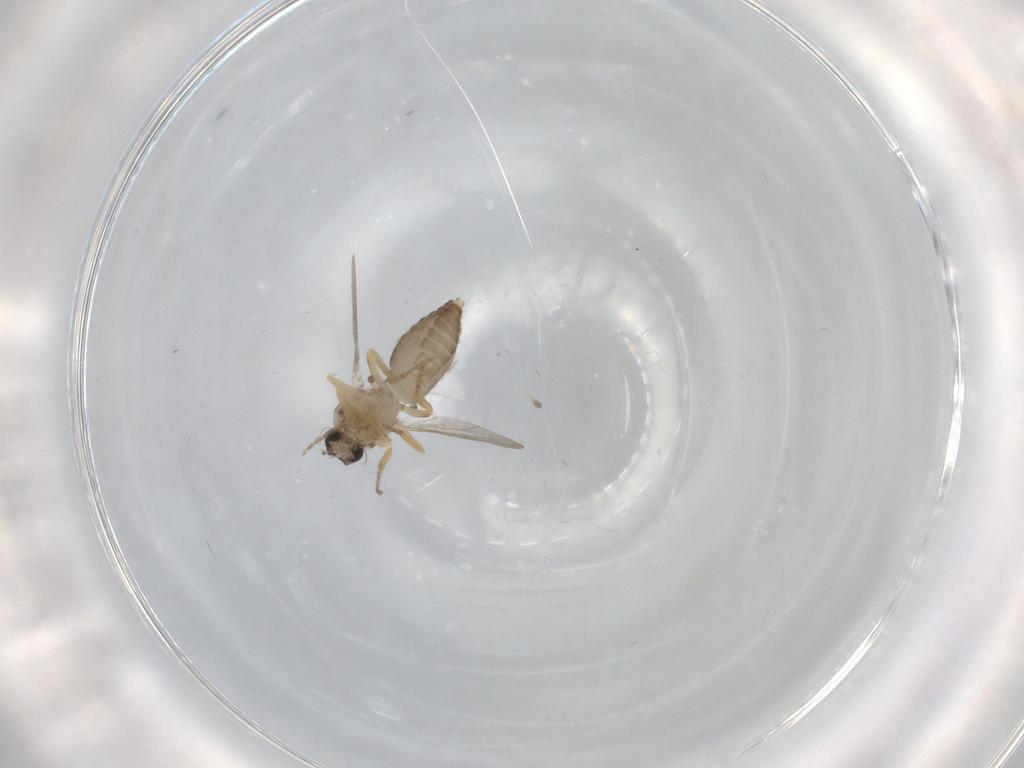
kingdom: Animalia
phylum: Arthropoda
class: Insecta
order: Diptera
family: Ceratopogonidae
